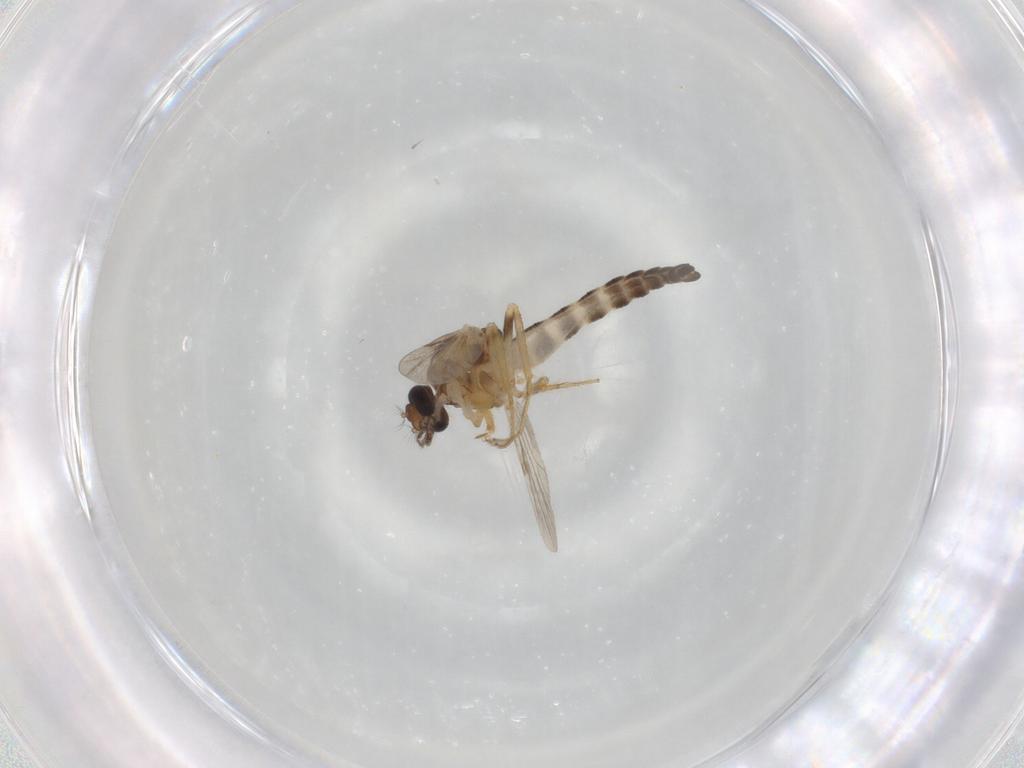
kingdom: Animalia
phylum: Arthropoda
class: Insecta
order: Diptera
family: Ceratopogonidae
